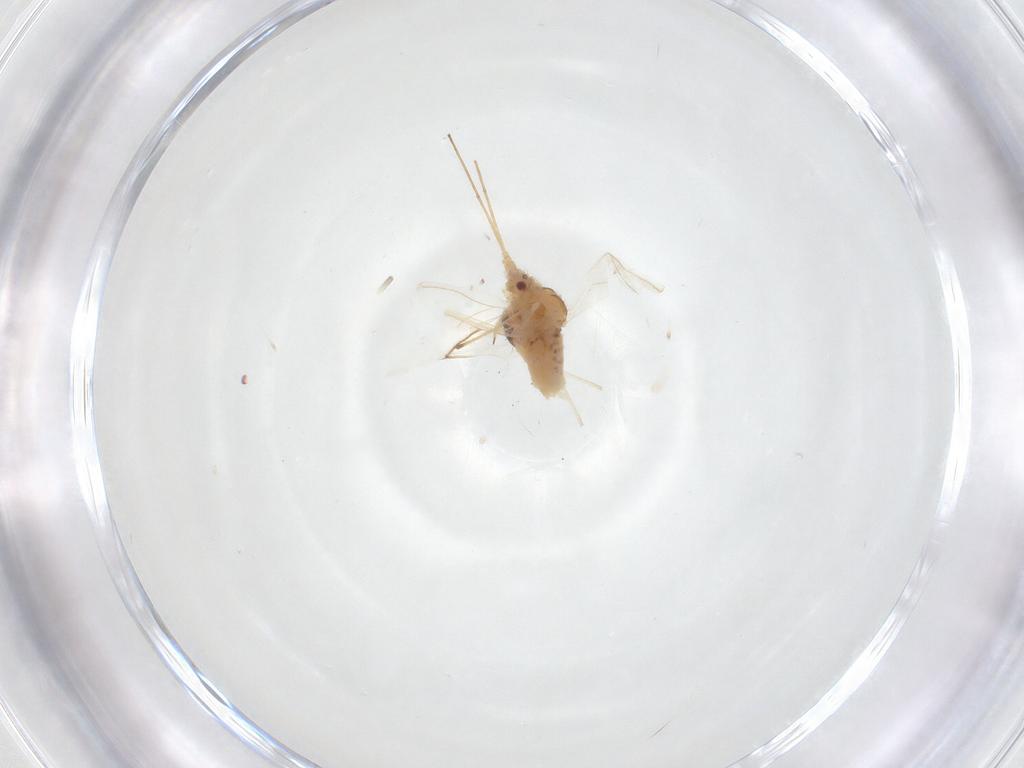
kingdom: Animalia
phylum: Arthropoda
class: Insecta
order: Hemiptera
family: Aphididae
